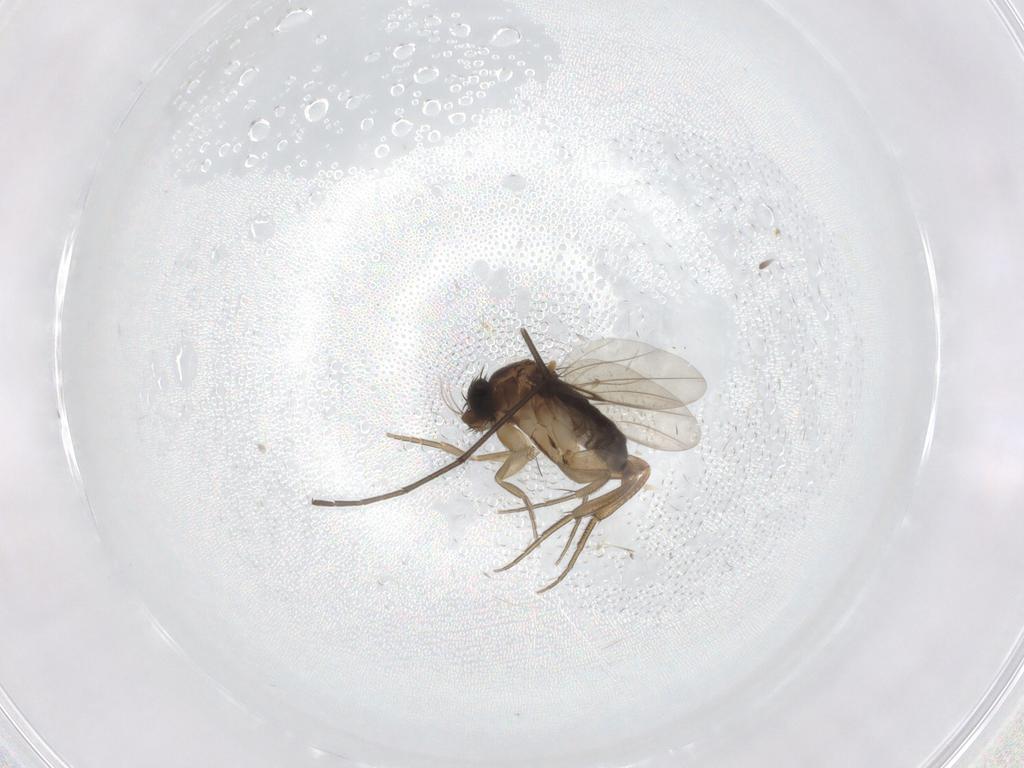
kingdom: Animalia
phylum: Arthropoda
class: Insecta
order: Diptera
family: Phoridae
